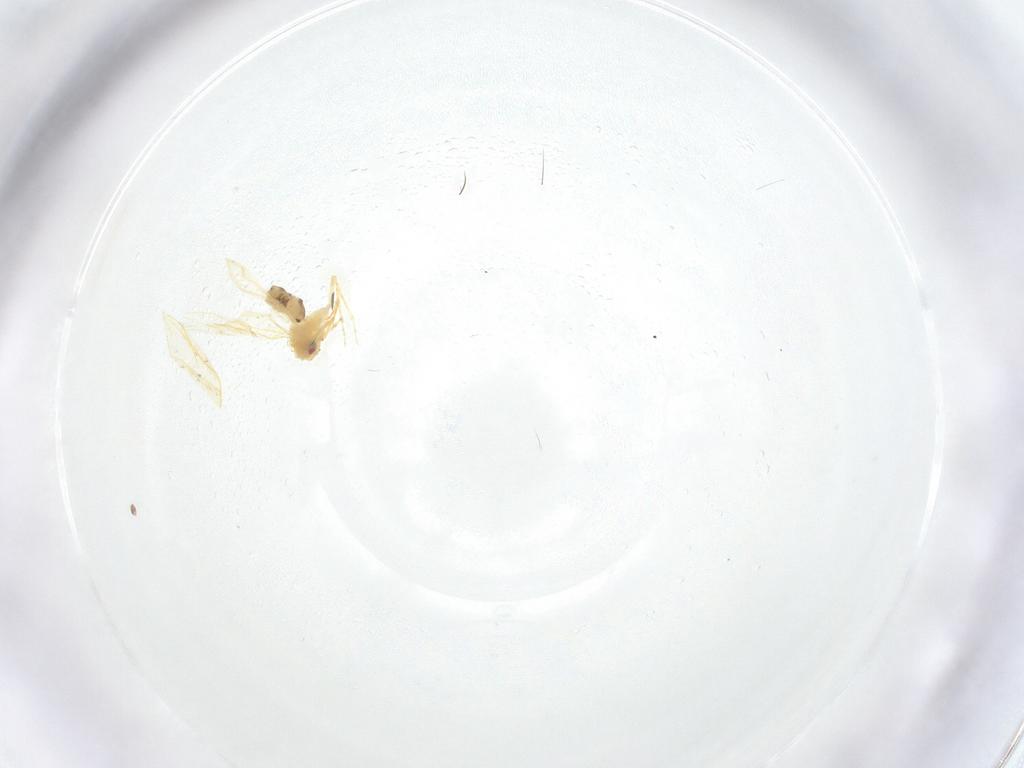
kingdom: Animalia
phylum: Arthropoda
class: Insecta
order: Hemiptera
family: Aleyrodidae
